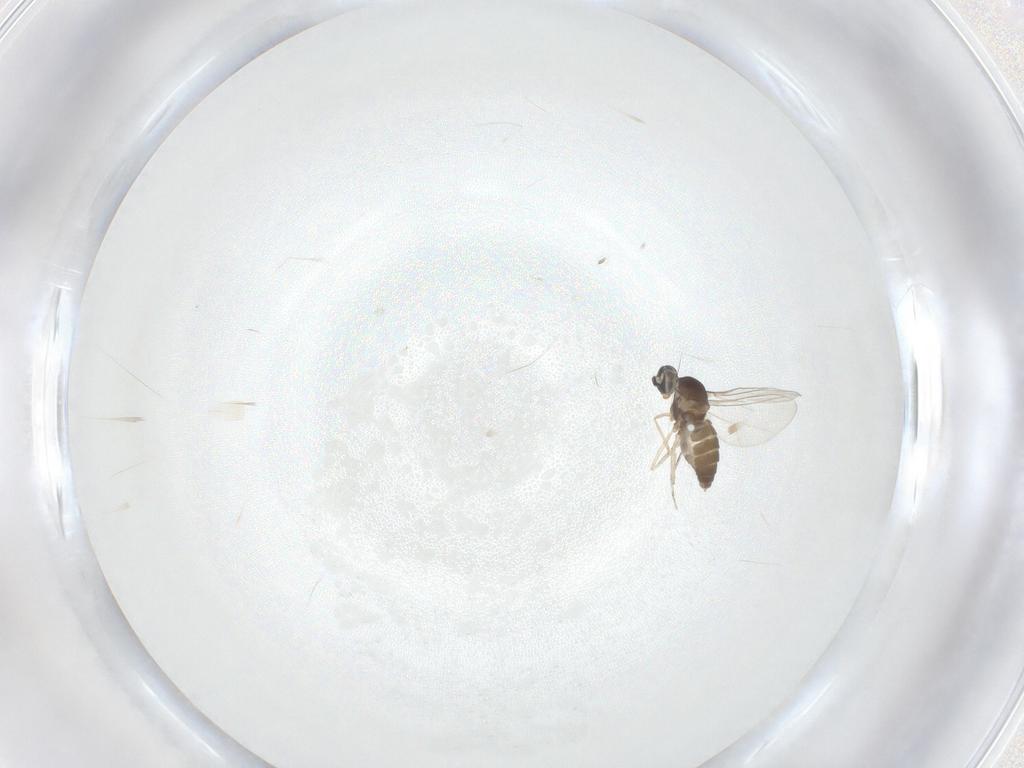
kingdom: Animalia
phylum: Arthropoda
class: Insecta
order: Diptera
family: Cecidomyiidae
